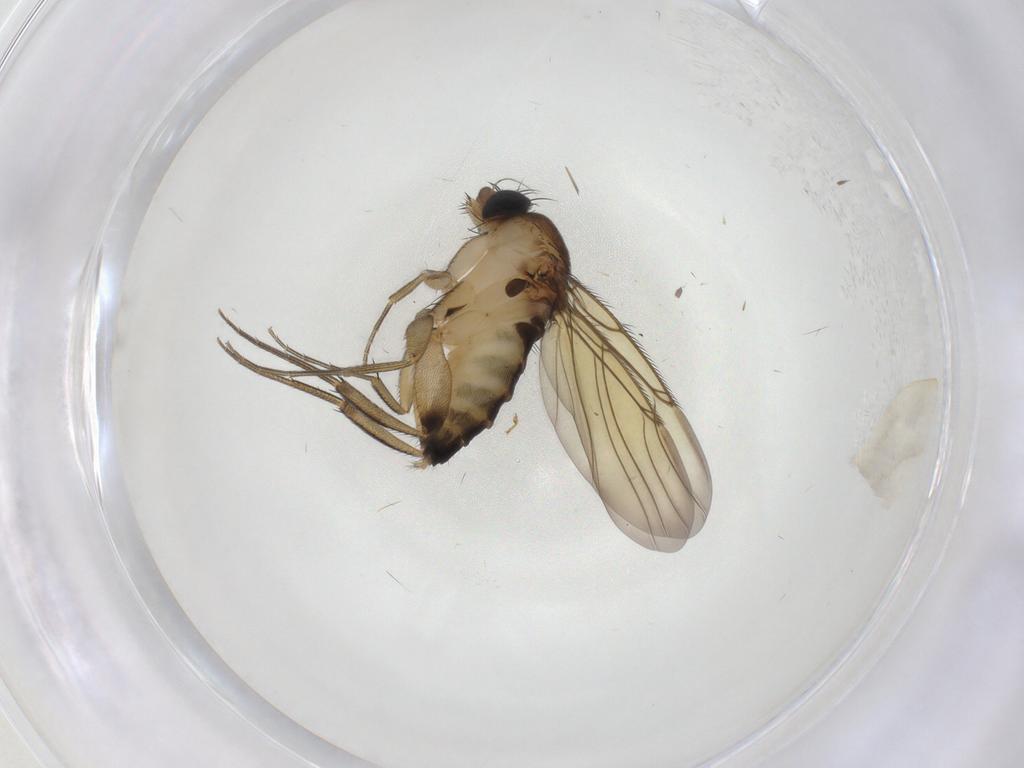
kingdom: Animalia
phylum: Arthropoda
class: Insecta
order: Diptera
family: Phoridae
